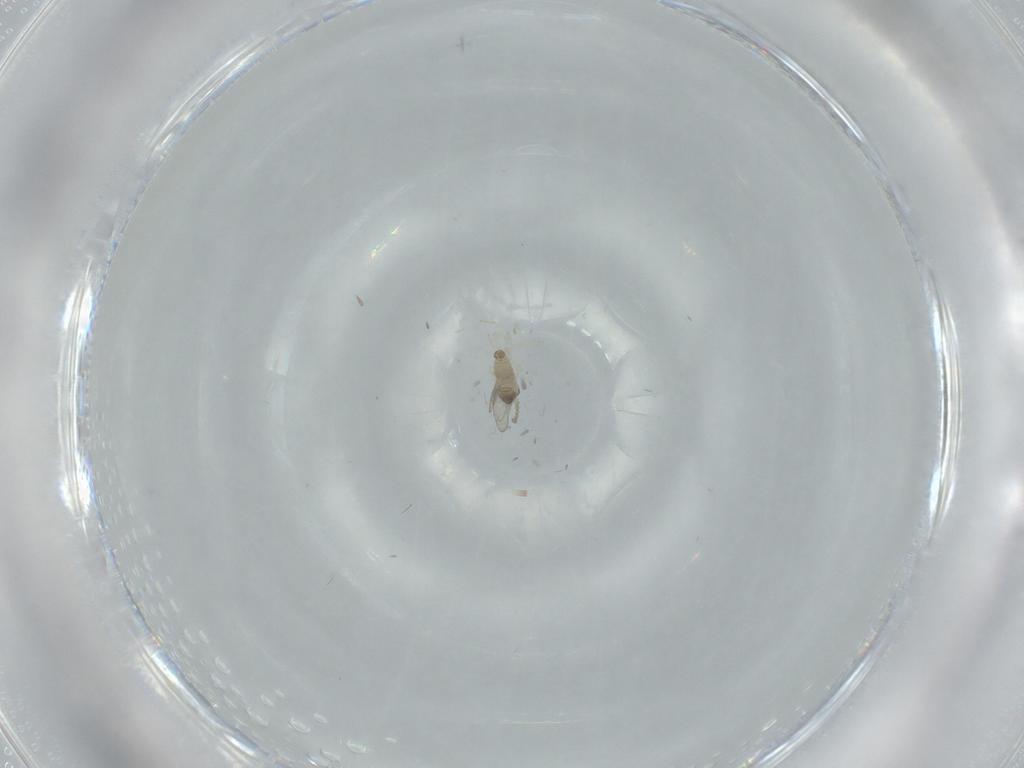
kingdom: Animalia
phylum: Arthropoda
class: Insecta
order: Diptera
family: Cecidomyiidae
